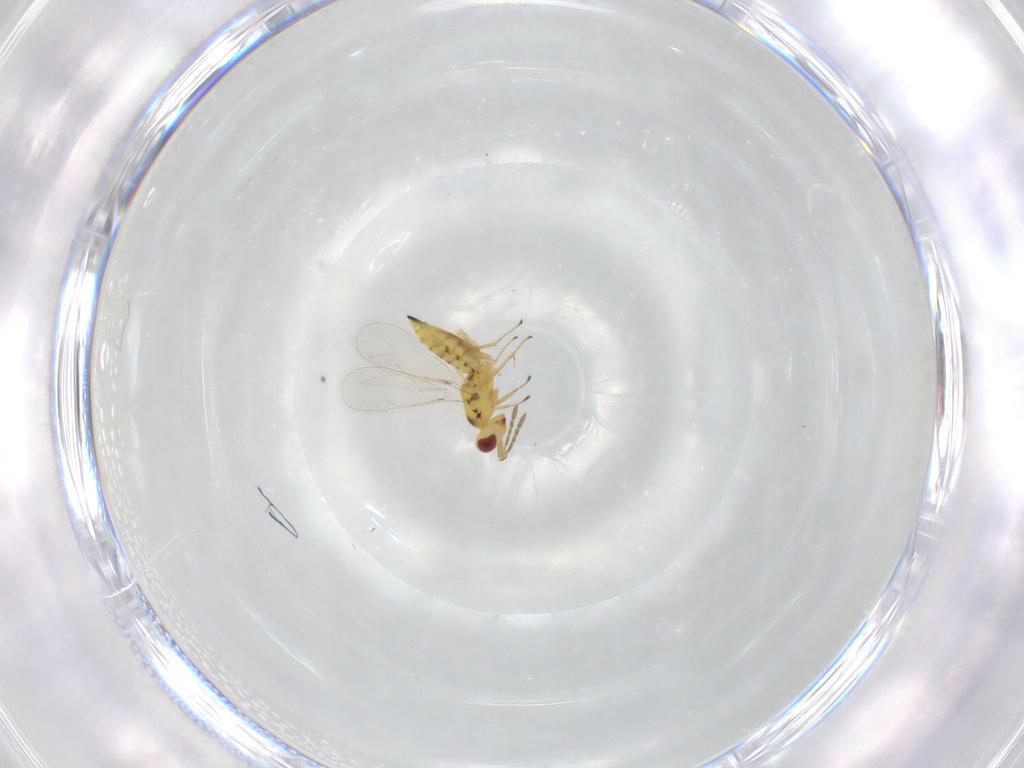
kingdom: Animalia
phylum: Arthropoda
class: Insecta
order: Hymenoptera
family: Eulophidae
